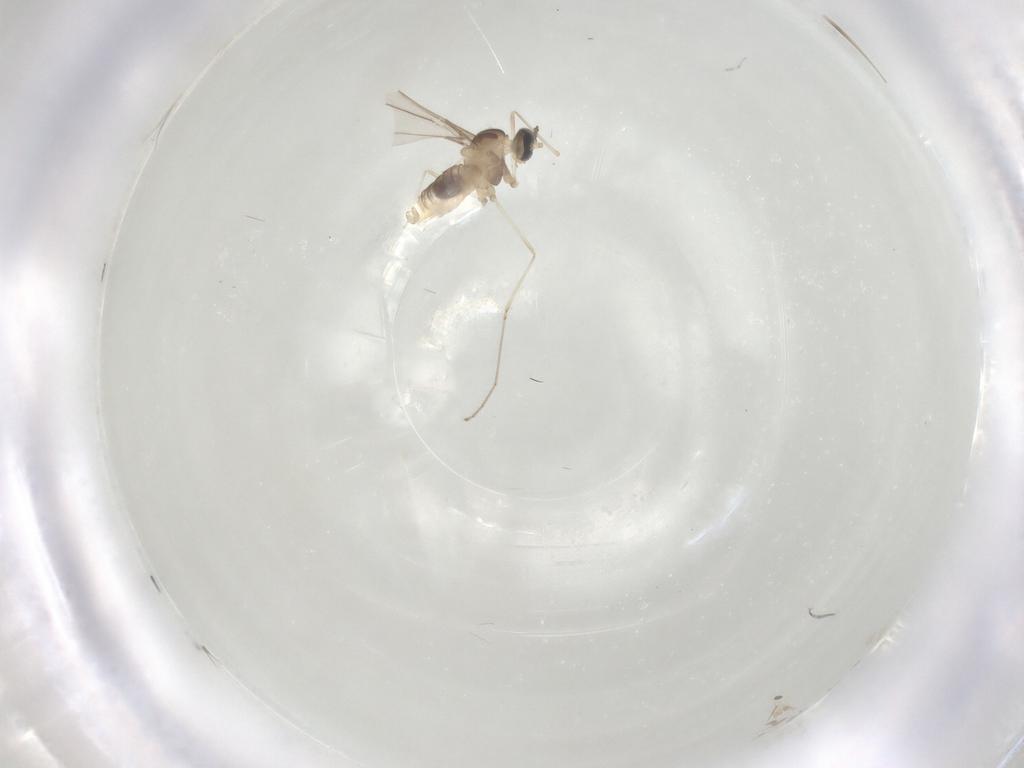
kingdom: Animalia
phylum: Arthropoda
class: Insecta
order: Diptera
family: Cecidomyiidae
